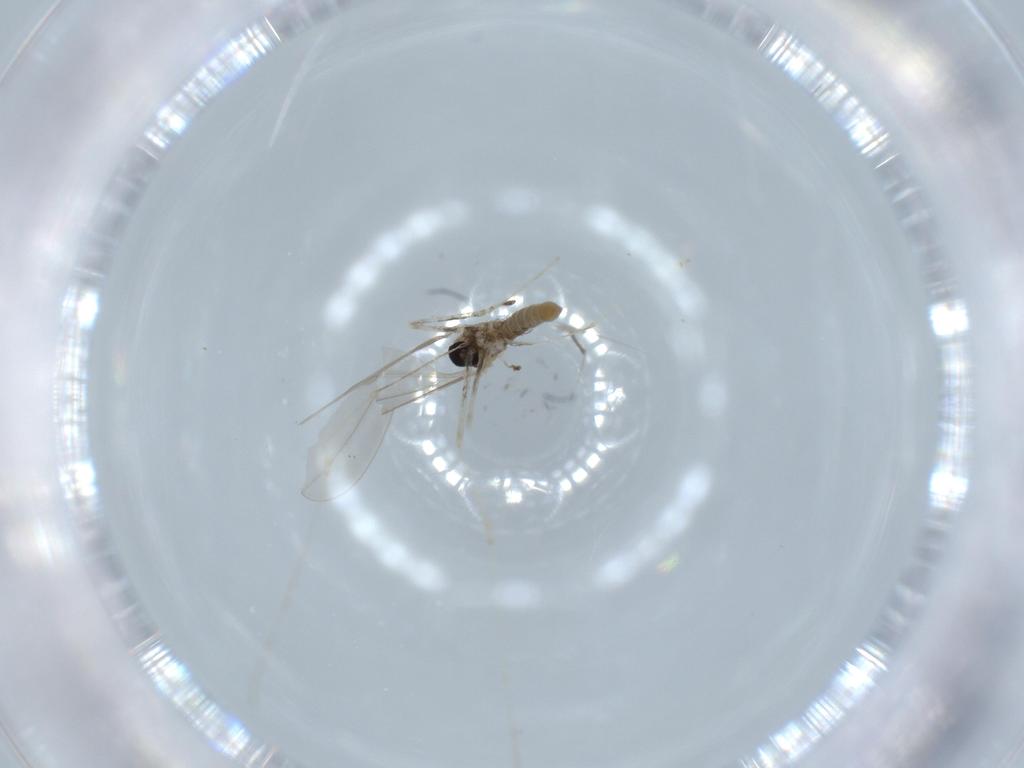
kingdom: Animalia
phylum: Arthropoda
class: Insecta
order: Diptera
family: Cecidomyiidae
